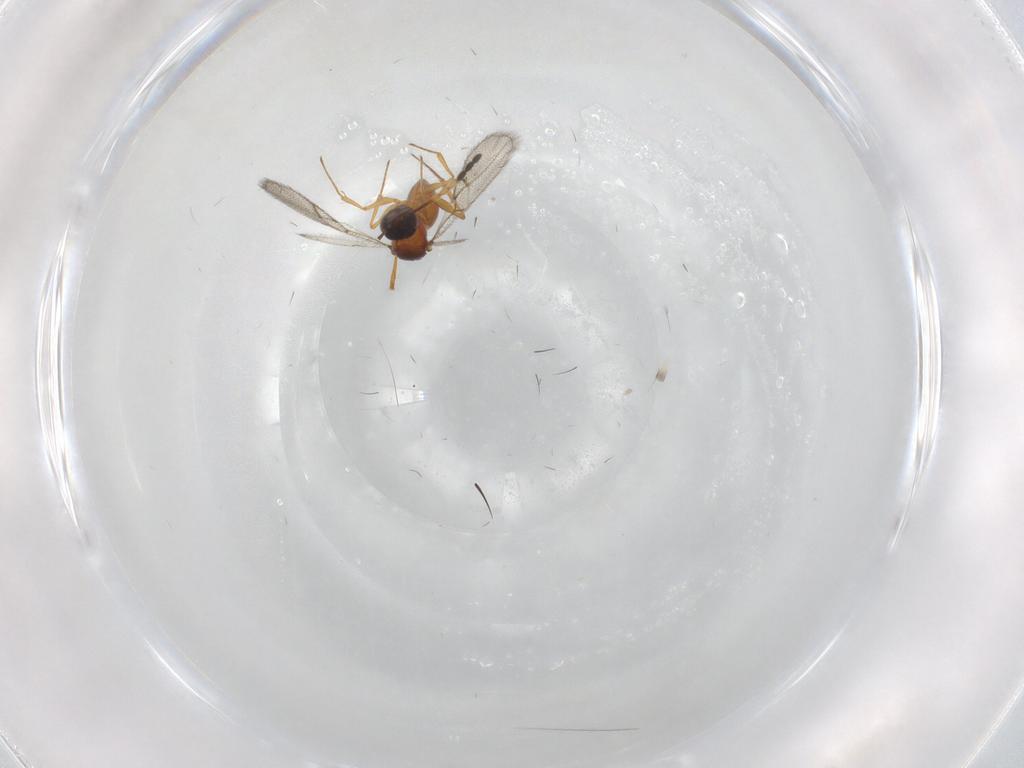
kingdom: Animalia
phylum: Arthropoda
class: Insecta
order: Hymenoptera
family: Figitidae
